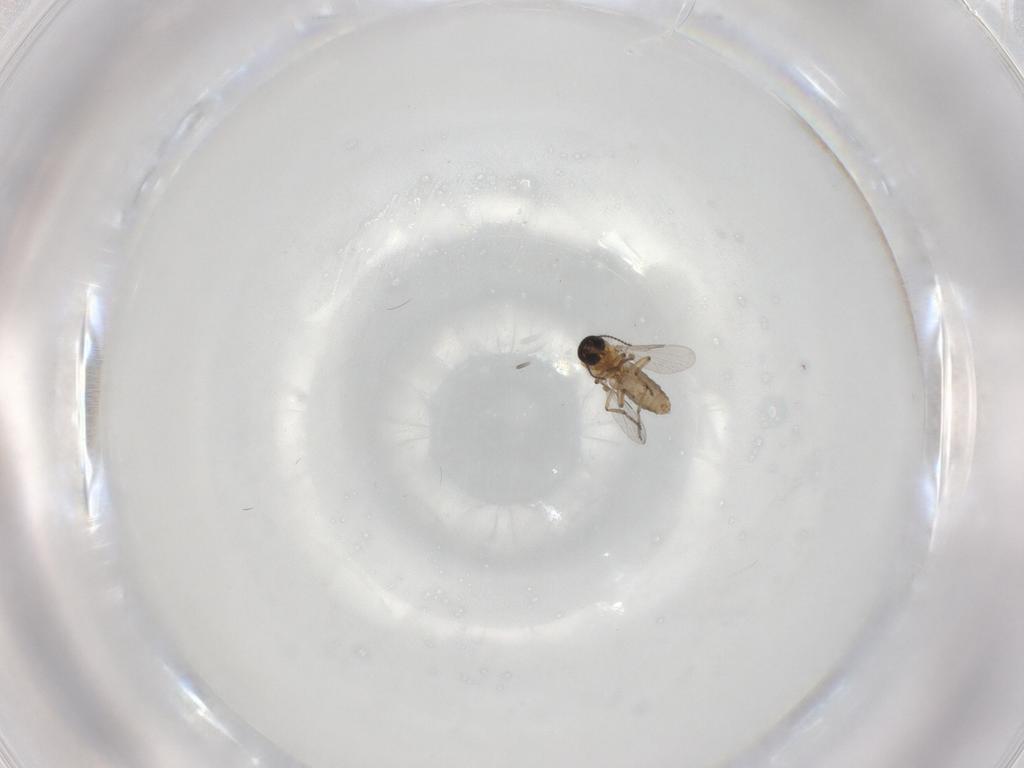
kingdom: Animalia
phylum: Arthropoda
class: Insecta
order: Diptera
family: Ceratopogonidae
